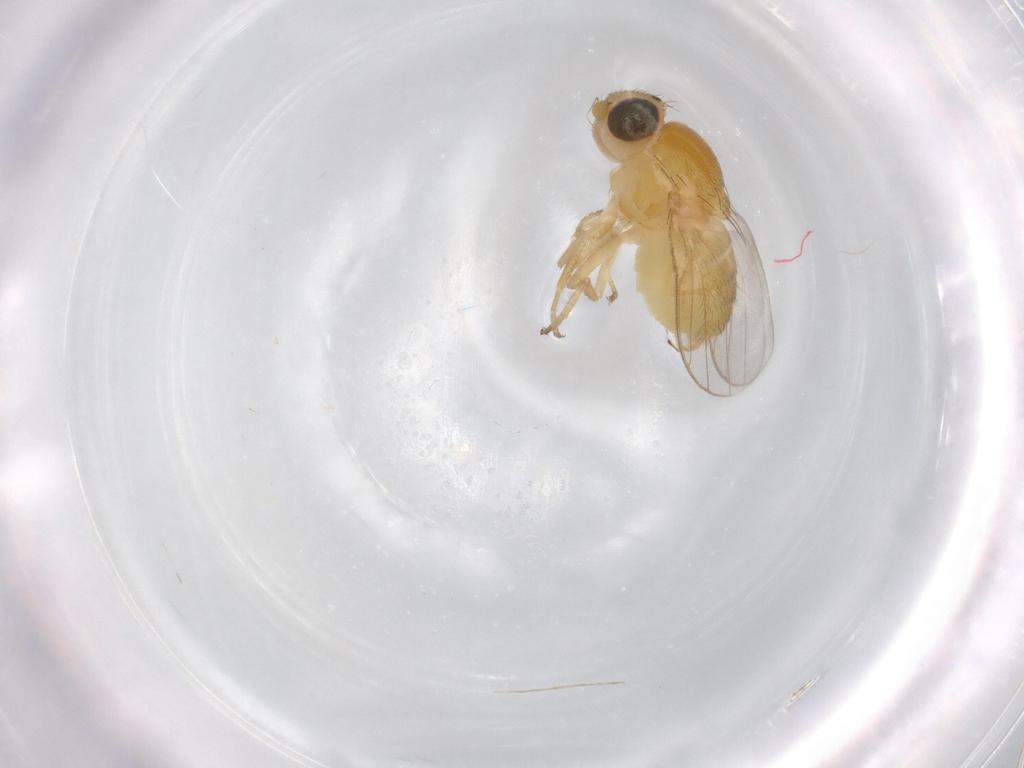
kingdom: Animalia
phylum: Arthropoda
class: Insecta
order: Diptera
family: Chloropidae
